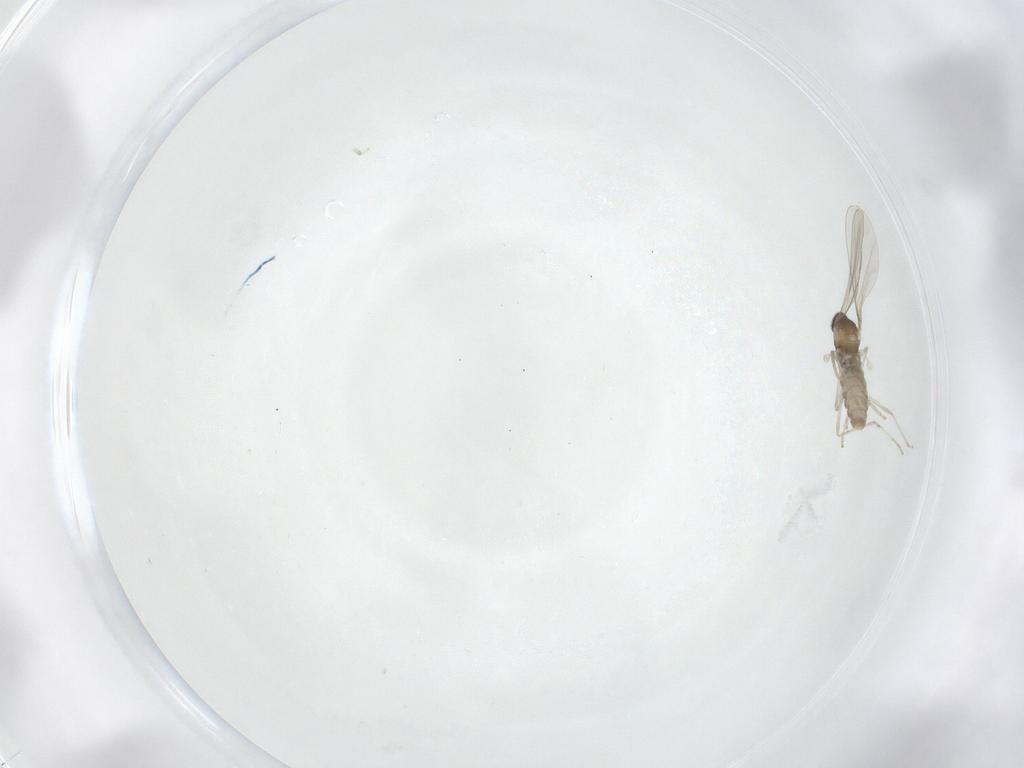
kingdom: Animalia
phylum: Arthropoda
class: Insecta
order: Diptera
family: Cecidomyiidae
